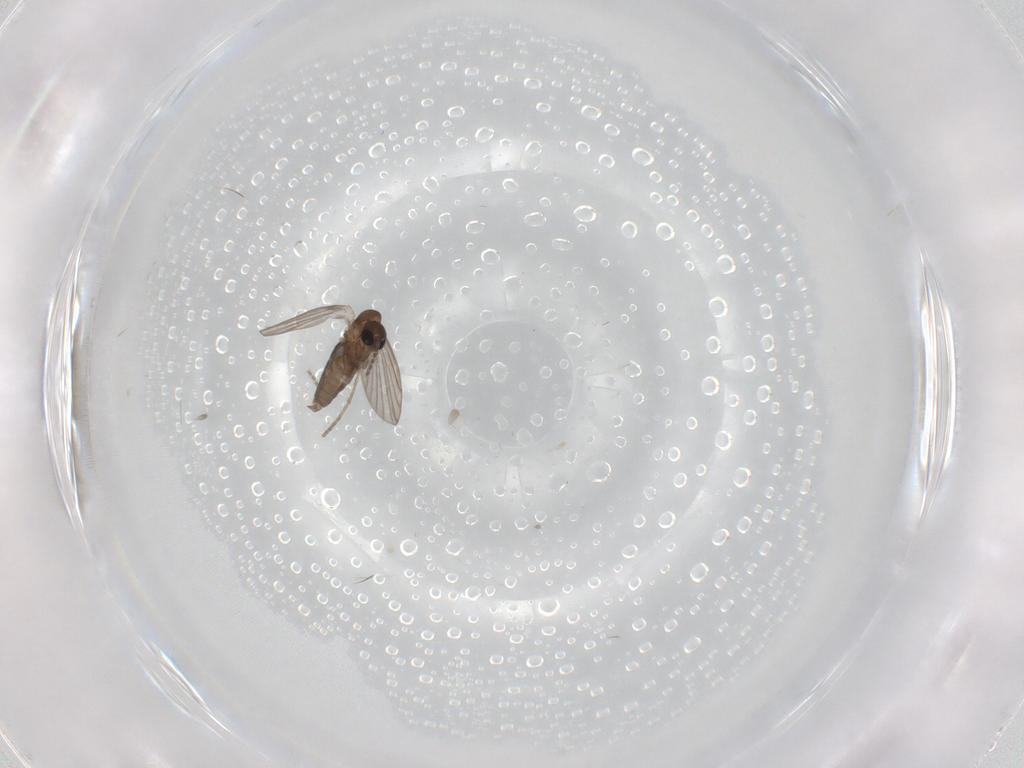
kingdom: Animalia
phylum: Arthropoda
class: Insecta
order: Diptera
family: Cecidomyiidae
